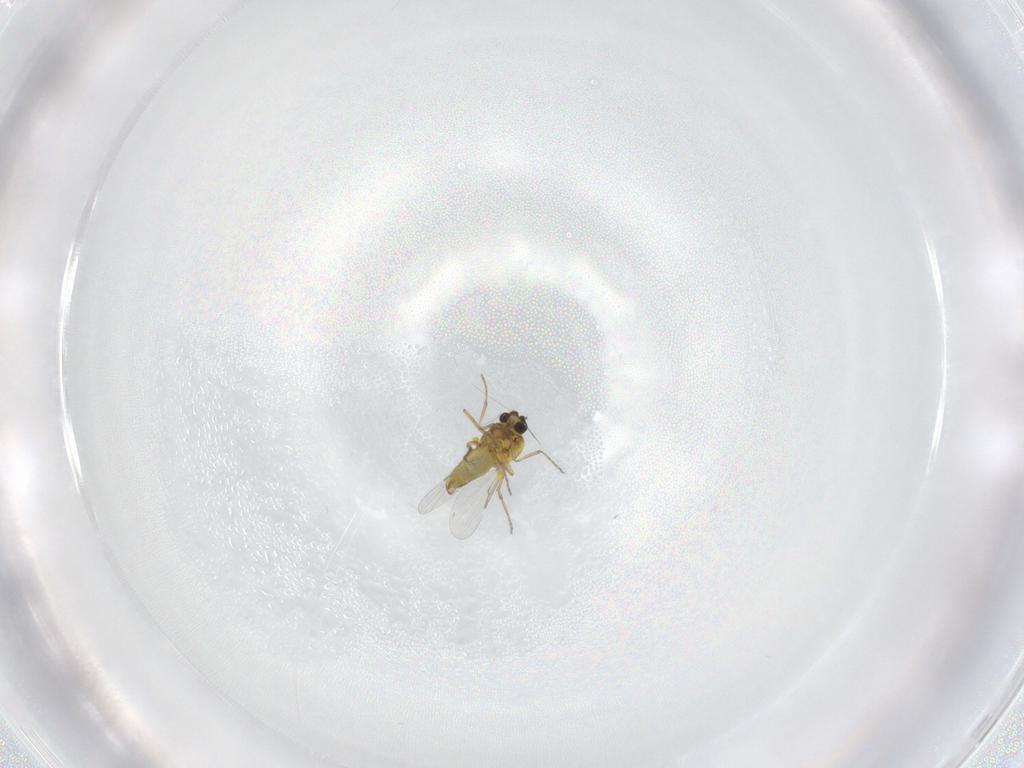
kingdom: Animalia
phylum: Arthropoda
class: Insecta
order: Diptera
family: Ceratopogonidae
